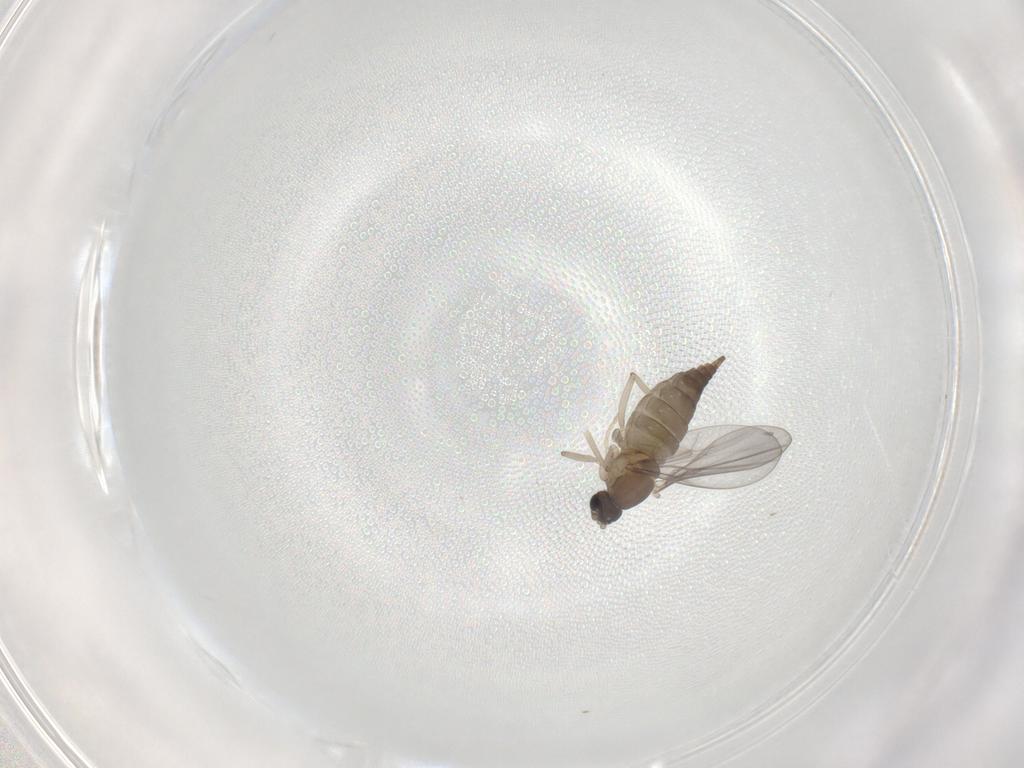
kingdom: Animalia
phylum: Arthropoda
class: Insecta
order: Diptera
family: Cecidomyiidae
